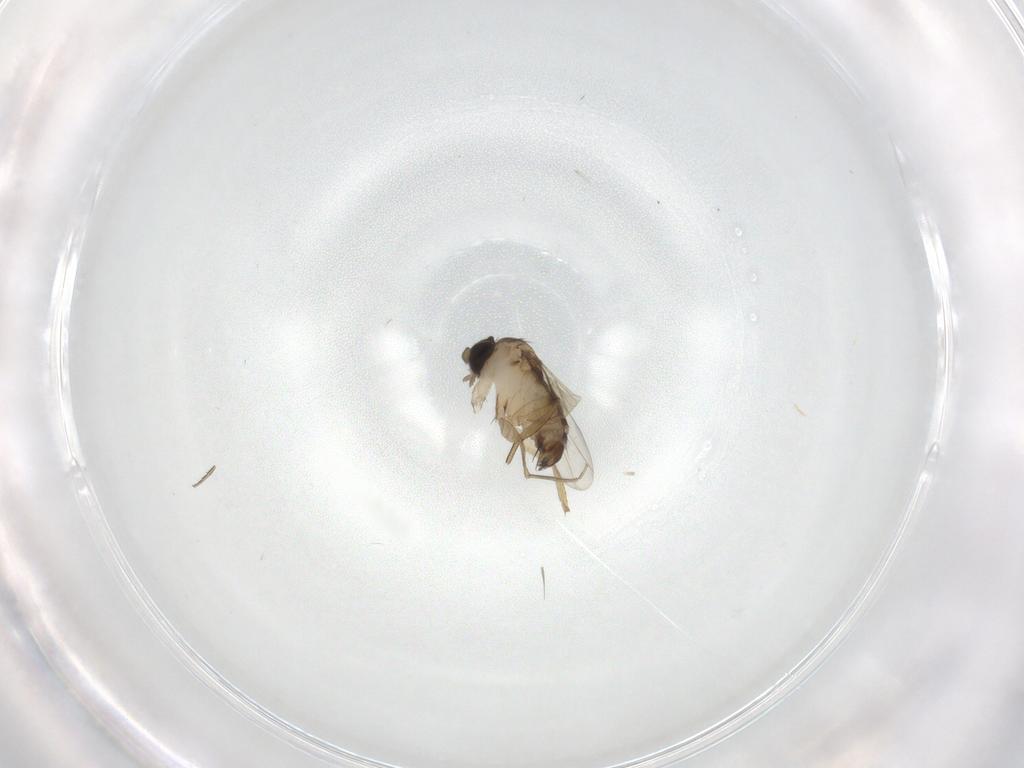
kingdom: Animalia
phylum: Arthropoda
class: Insecta
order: Diptera
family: Phoridae
